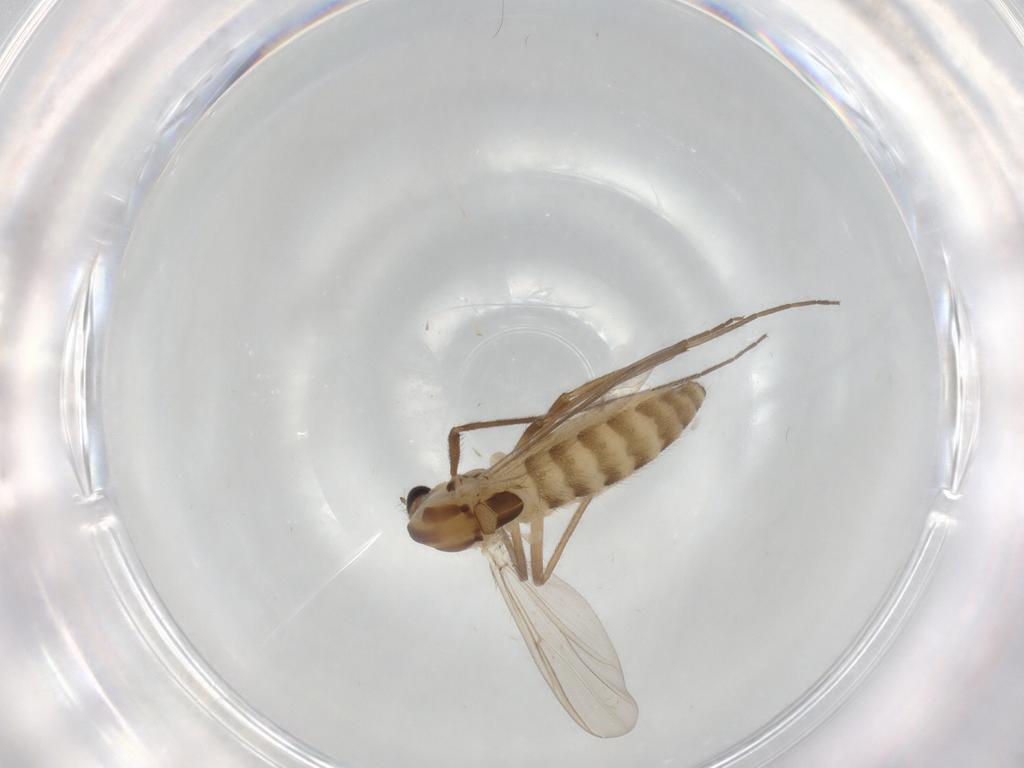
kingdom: Animalia
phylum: Arthropoda
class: Insecta
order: Diptera
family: Chironomidae
